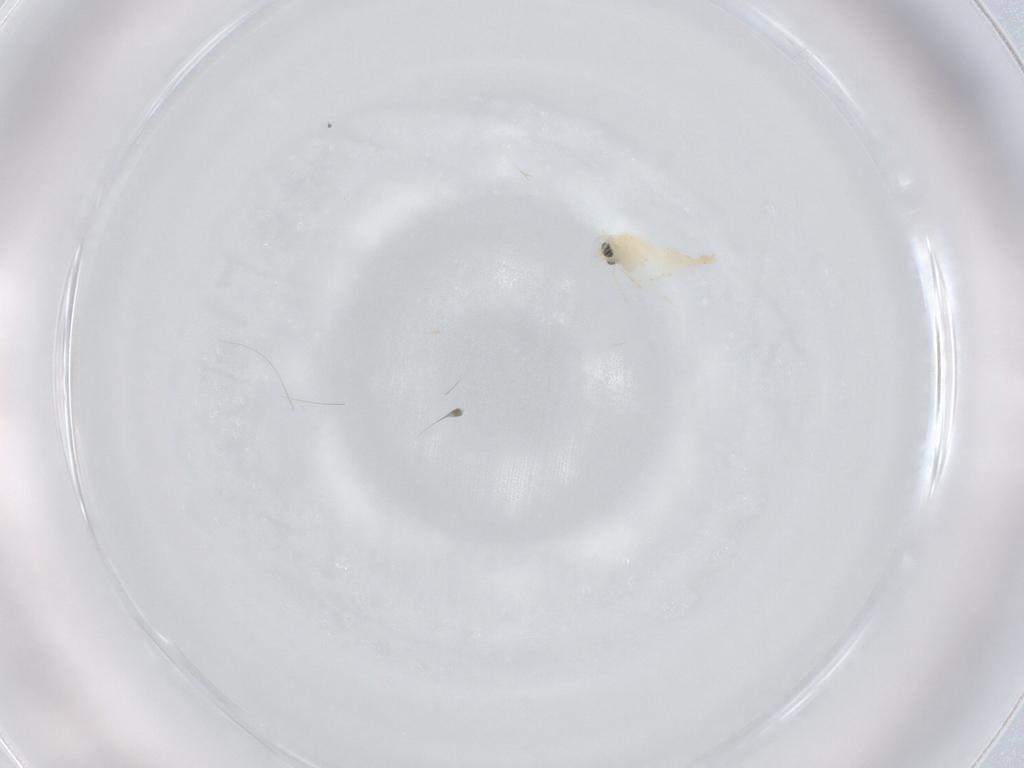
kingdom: Animalia
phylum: Arthropoda
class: Insecta
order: Diptera
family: Chironomidae
